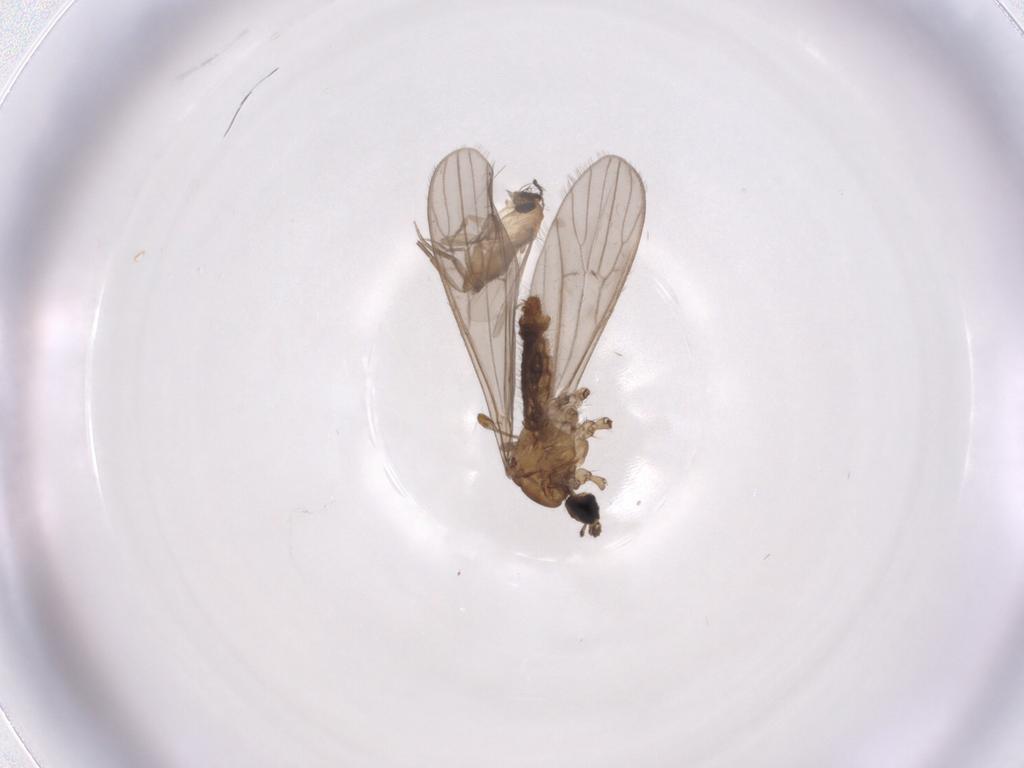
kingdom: Animalia
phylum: Arthropoda
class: Insecta
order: Diptera
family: Limoniidae
